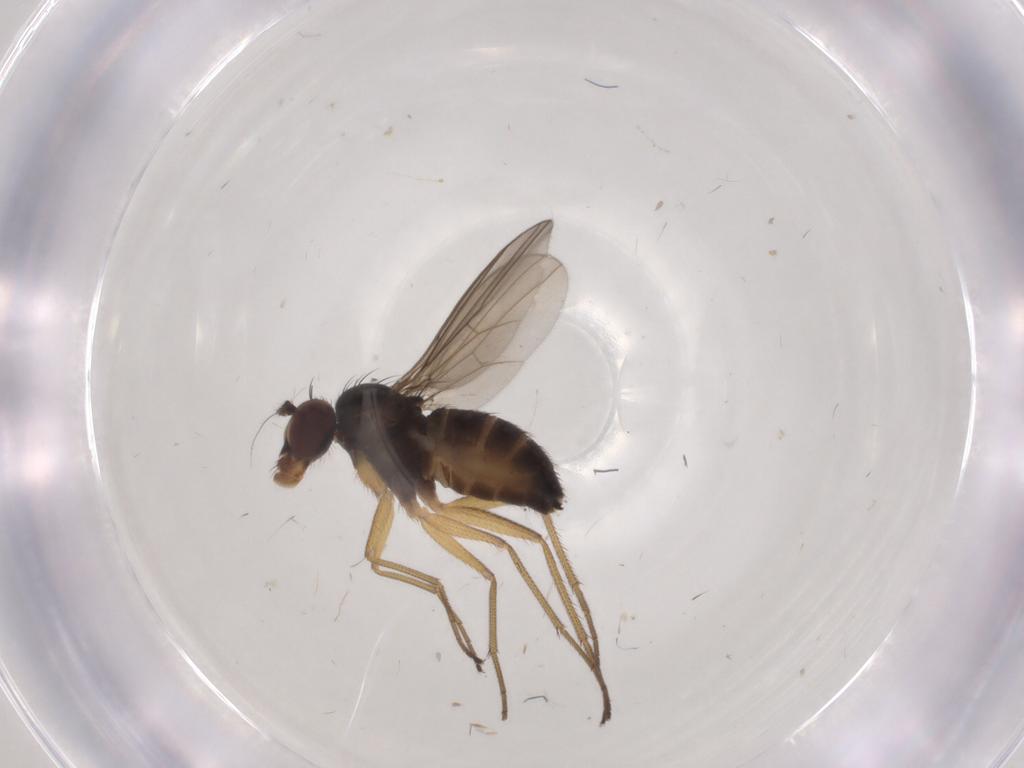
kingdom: Animalia
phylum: Arthropoda
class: Insecta
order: Diptera
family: Dolichopodidae
